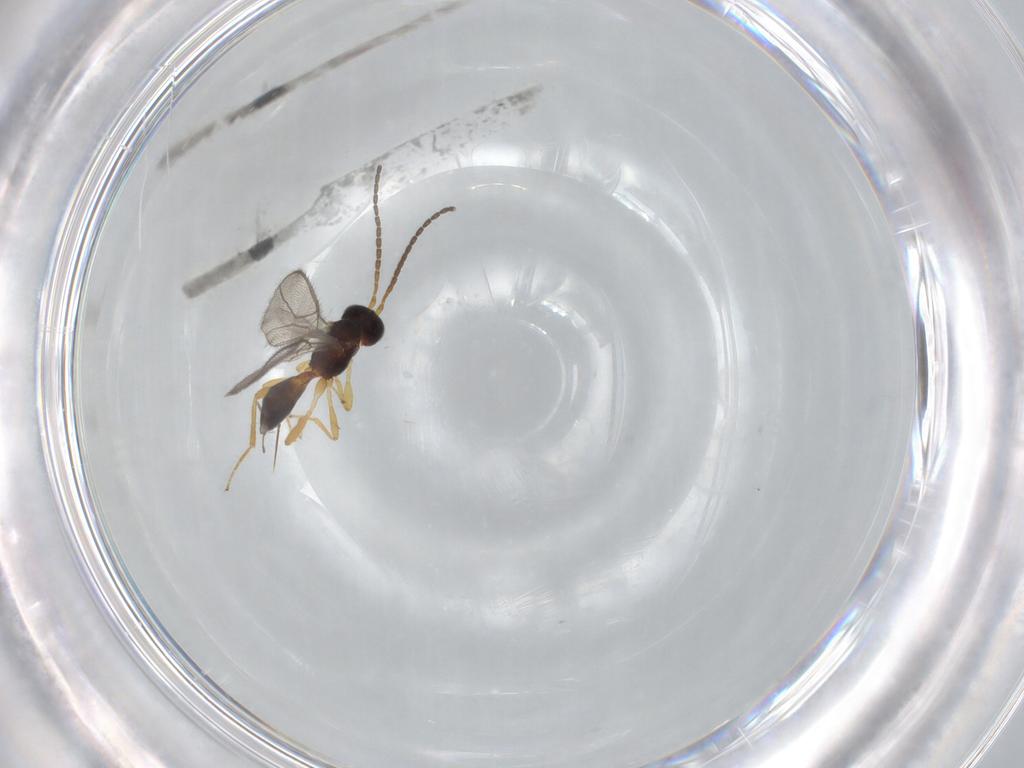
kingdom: Animalia
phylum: Arthropoda
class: Insecta
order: Hymenoptera
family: Braconidae
